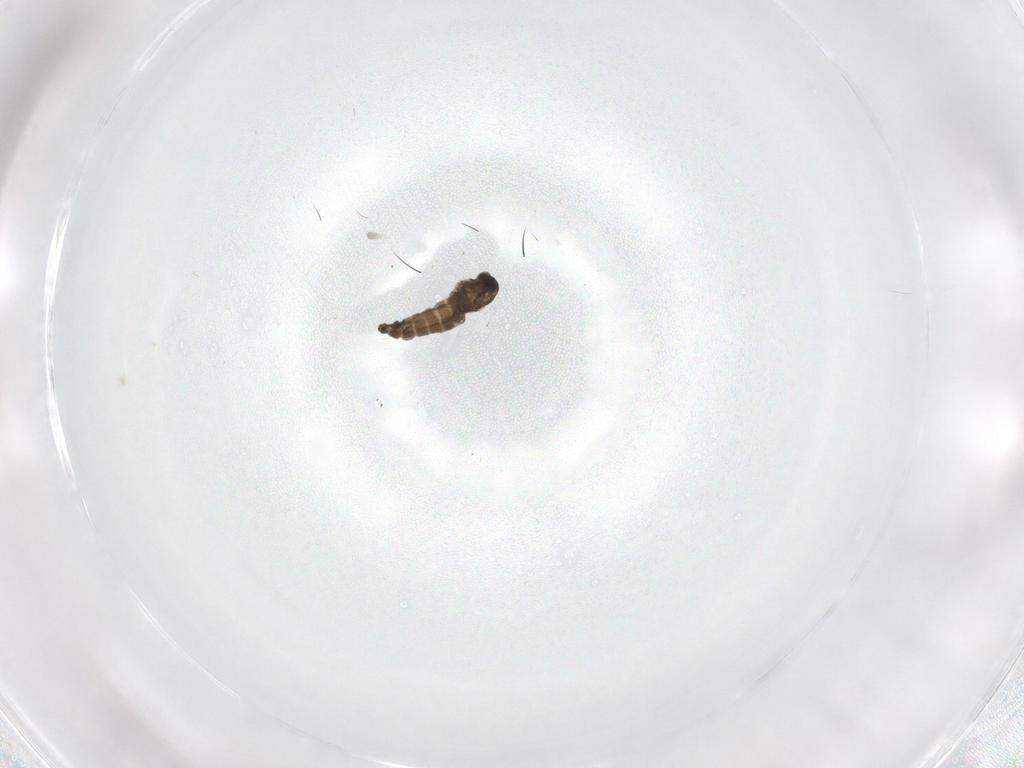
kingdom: Animalia
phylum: Arthropoda
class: Insecta
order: Diptera
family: Chironomidae
